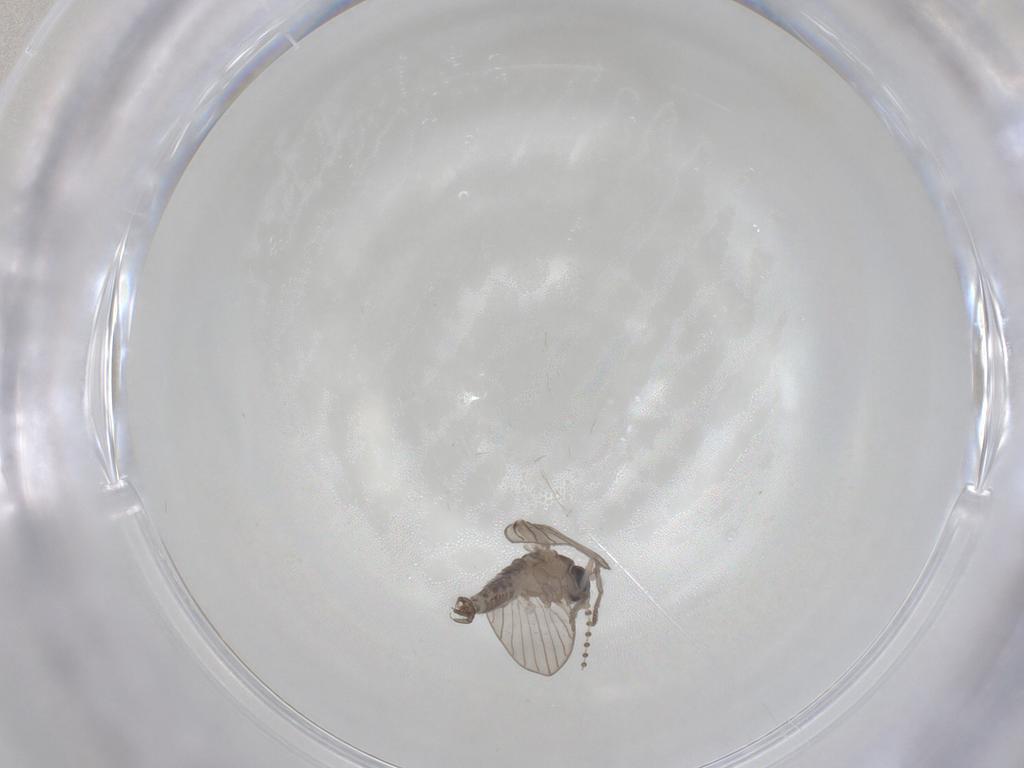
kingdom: Animalia
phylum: Arthropoda
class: Insecta
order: Diptera
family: Psychodidae
